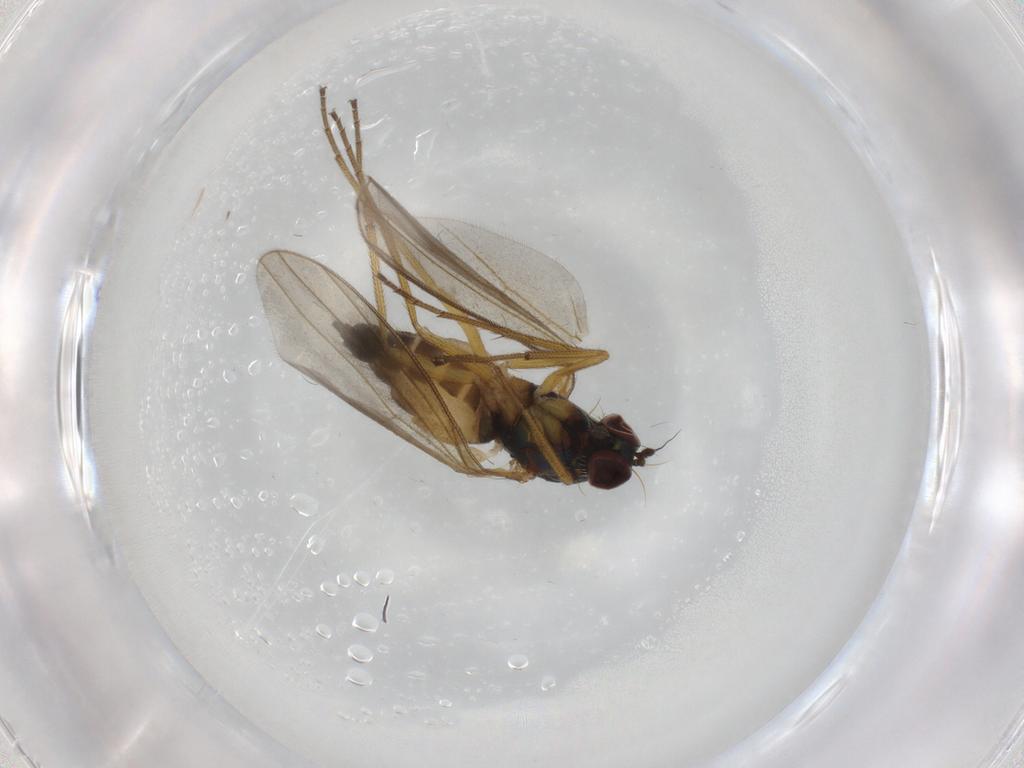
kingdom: Animalia
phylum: Arthropoda
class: Insecta
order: Diptera
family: Dolichopodidae
